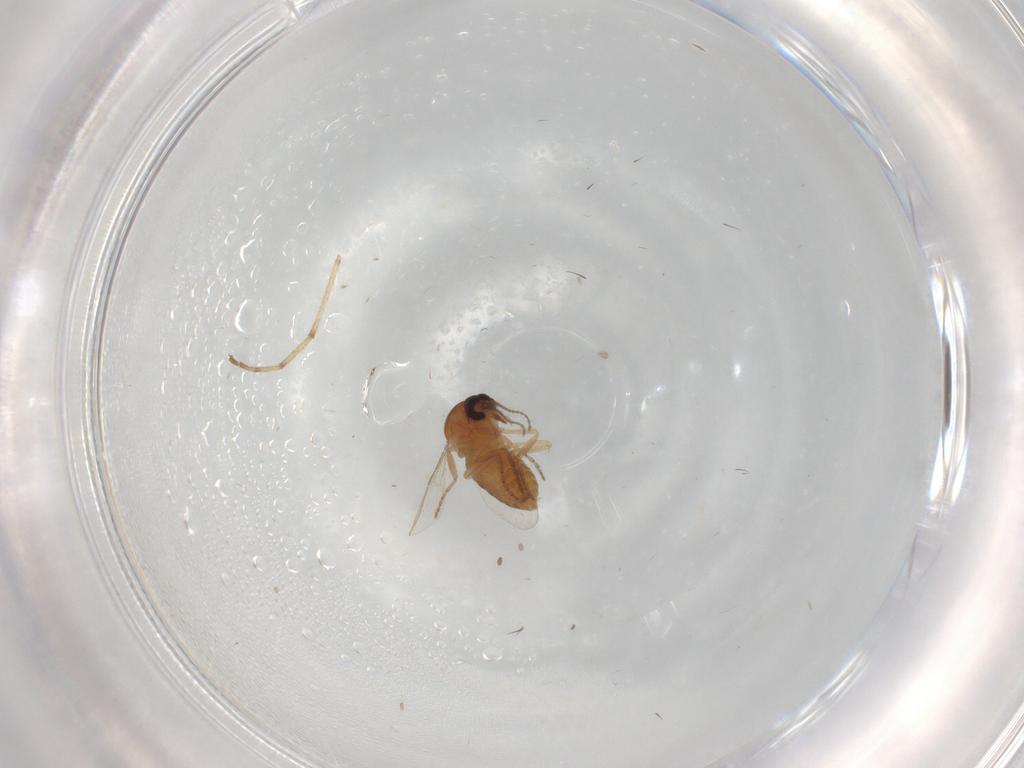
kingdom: Animalia
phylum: Arthropoda
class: Insecta
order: Diptera
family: Ceratopogonidae
